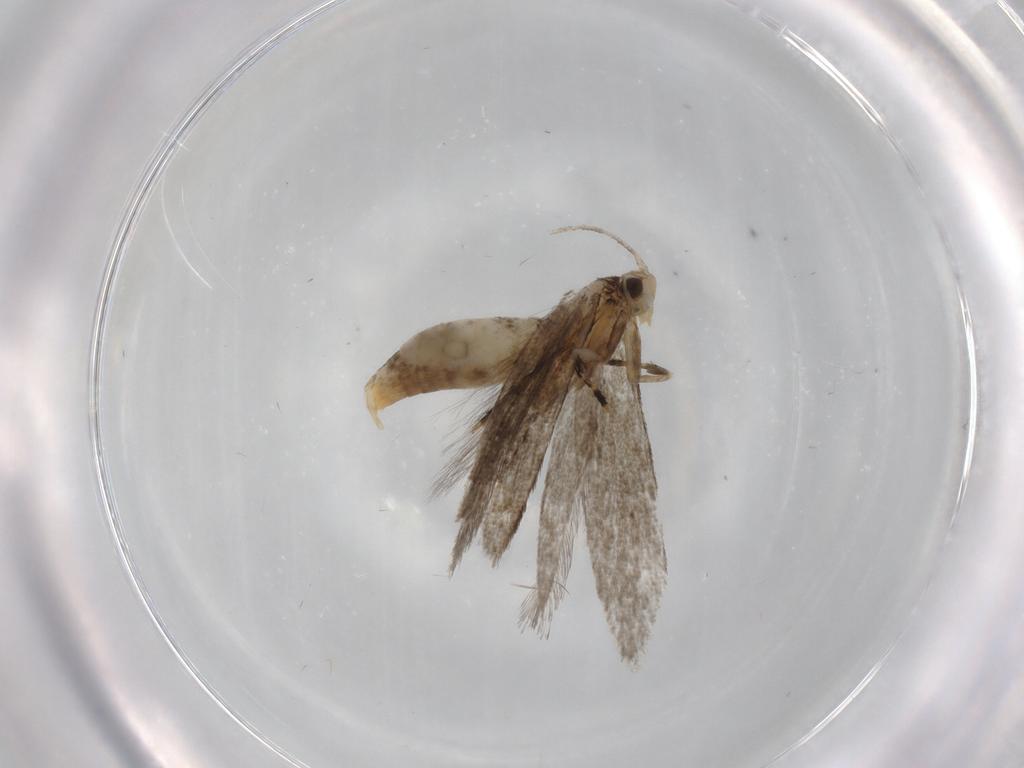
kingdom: Animalia
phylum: Arthropoda
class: Insecta
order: Lepidoptera
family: Tineidae
